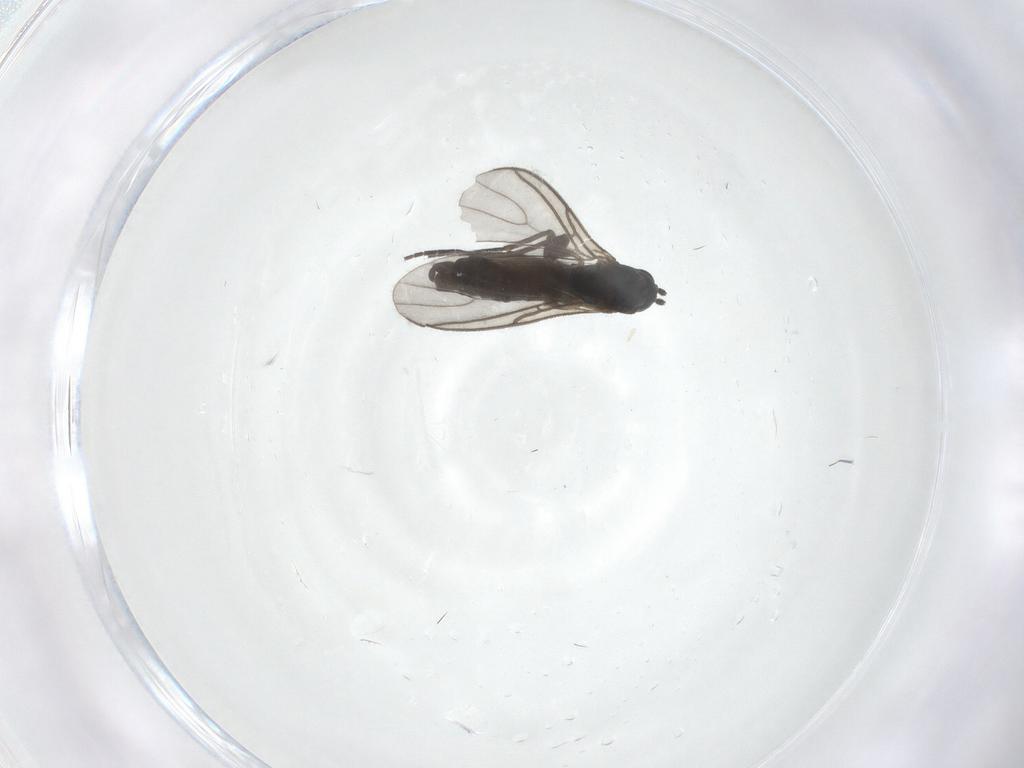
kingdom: Animalia
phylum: Arthropoda
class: Insecta
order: Diptera
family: Sciaridae
